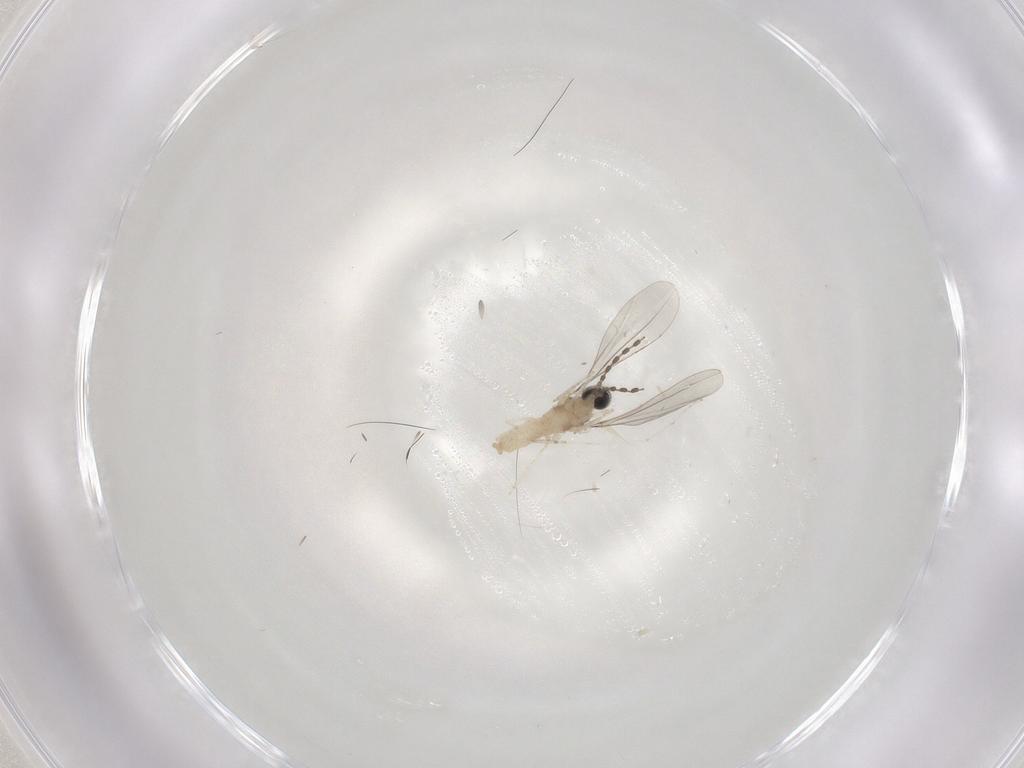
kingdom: Animalia
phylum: Arthropoda
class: Insecta
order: Diptera
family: Cecidomyiidae
